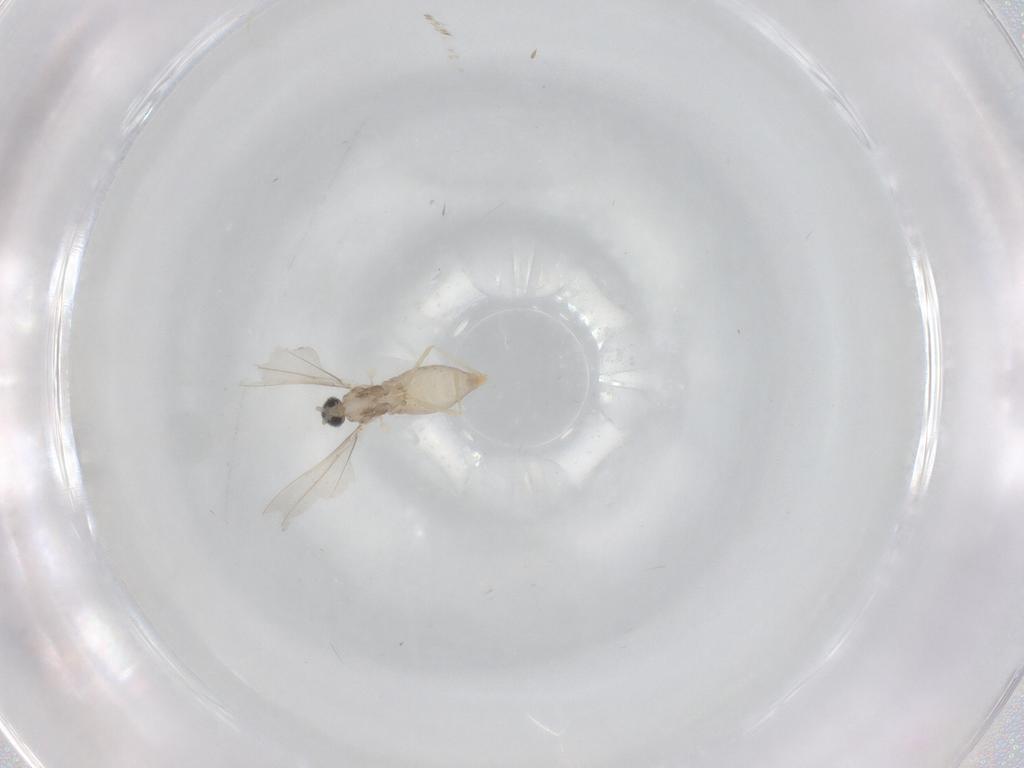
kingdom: Animalia
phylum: Arthropoda
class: Insecta
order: Diptera
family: Cecidomyiidae
